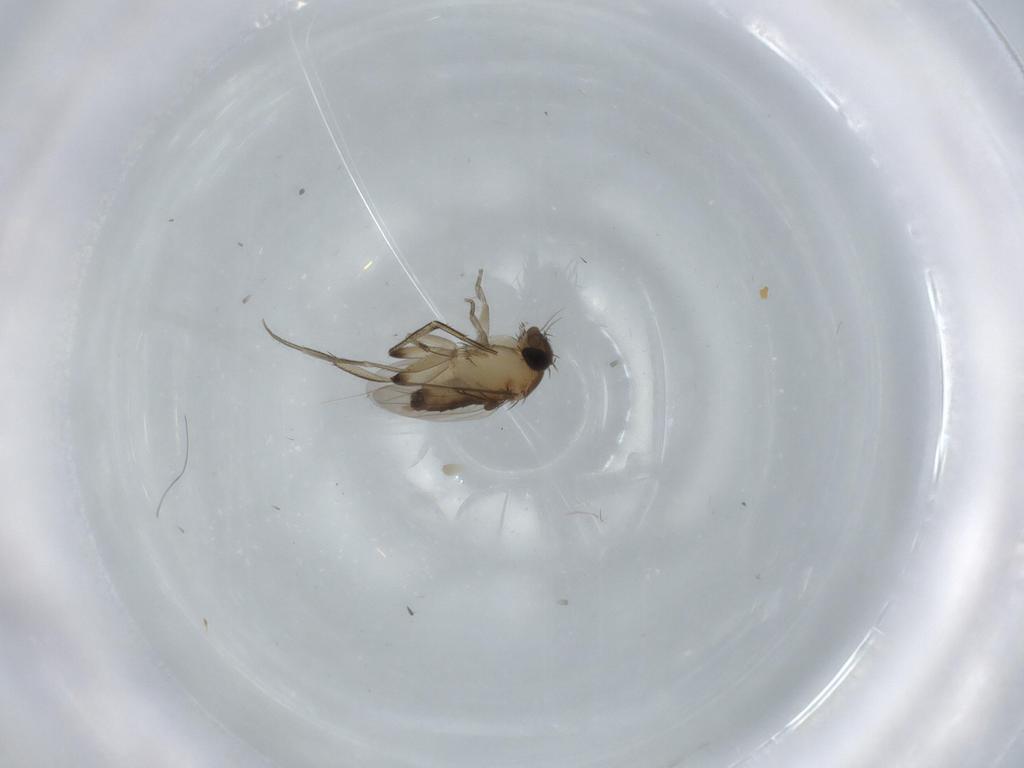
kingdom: Animalia
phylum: Arthropoda
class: Insecta
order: Diptera
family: Phoridae
